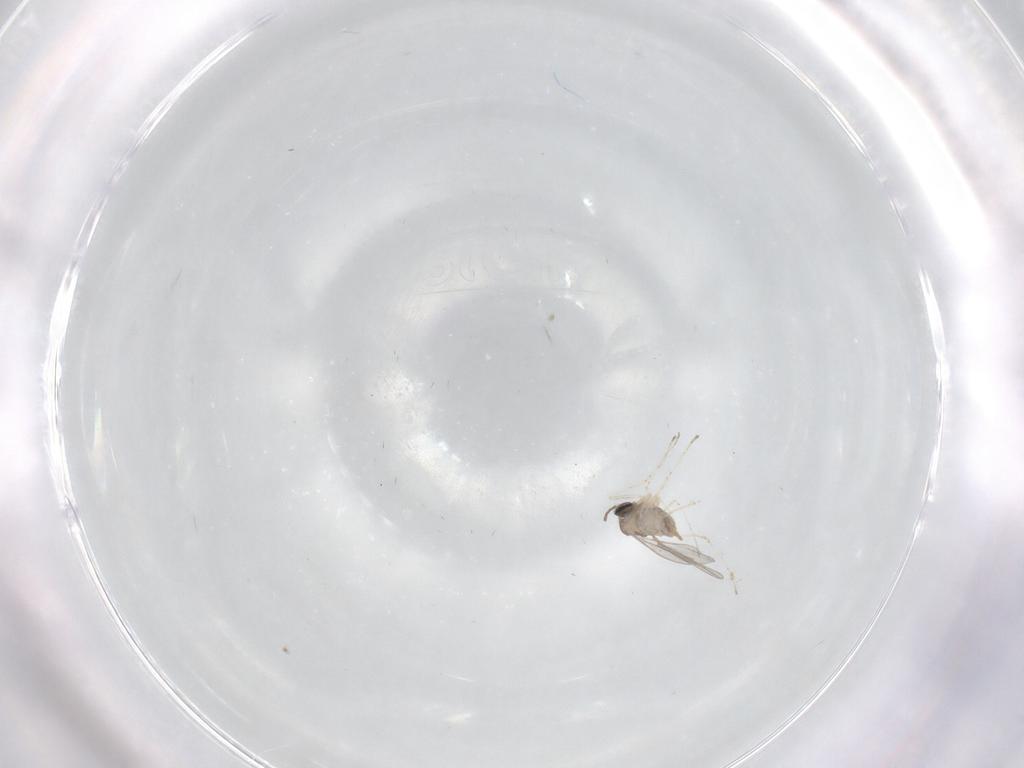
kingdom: Animalia
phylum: Arthropoda
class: Insecta
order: Diptera
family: Cecidomyiidae
